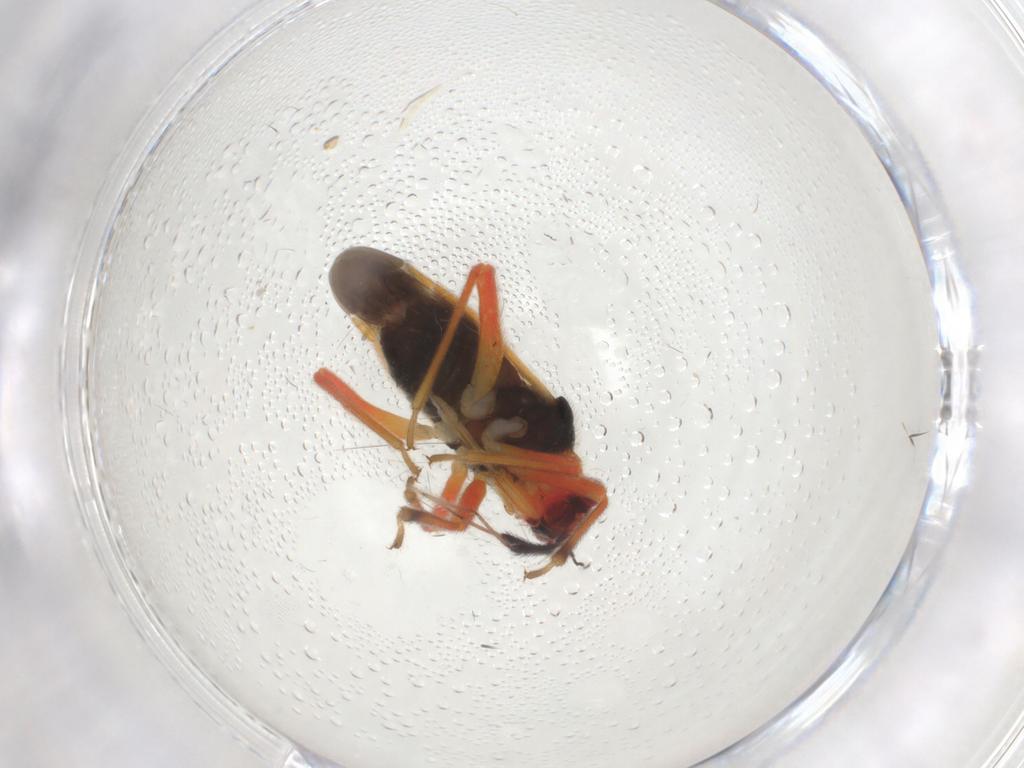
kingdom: Animalia
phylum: Arthropoda
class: Insecta
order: Hemiptera
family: Miridae
